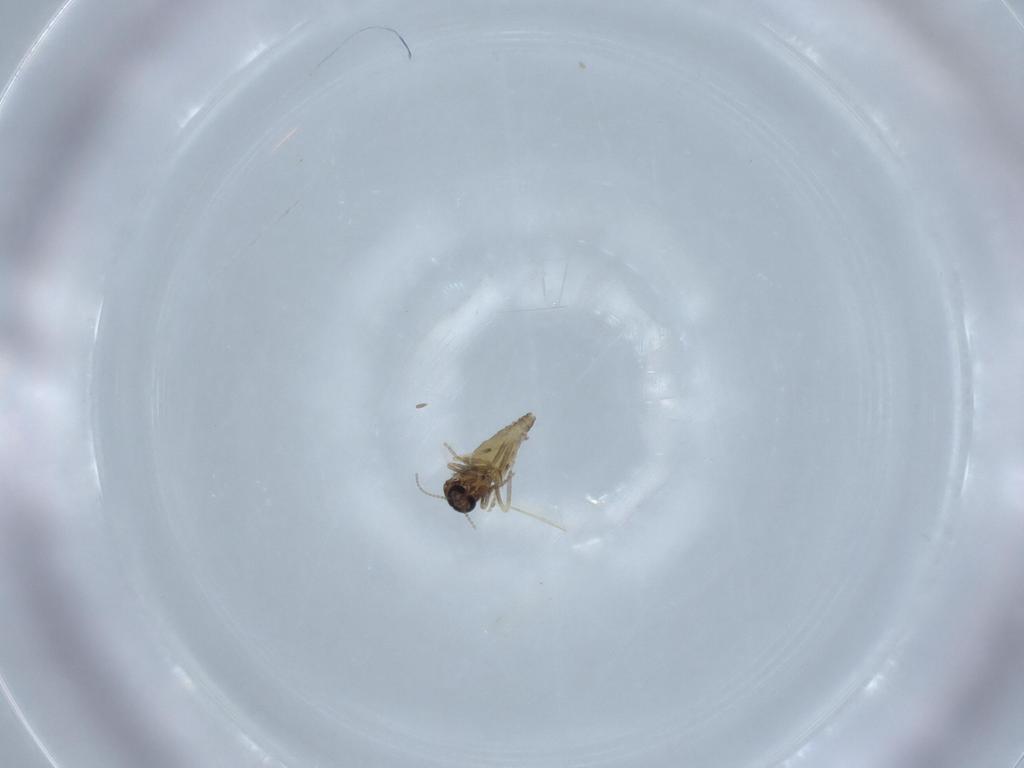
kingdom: Animalia
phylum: Arthropoda
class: Insecta
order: Diptera
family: Ceratopogonidae
